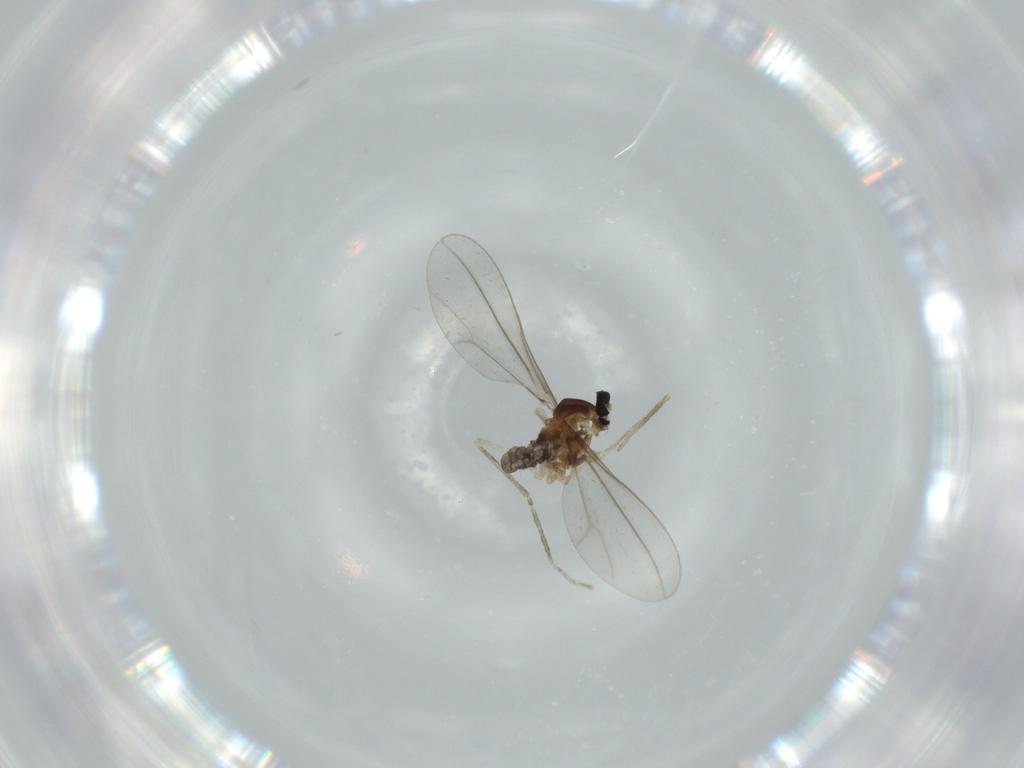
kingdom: Animalia
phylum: Arthropoda
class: Insecta
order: Diptera
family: Cecidomyiidae
